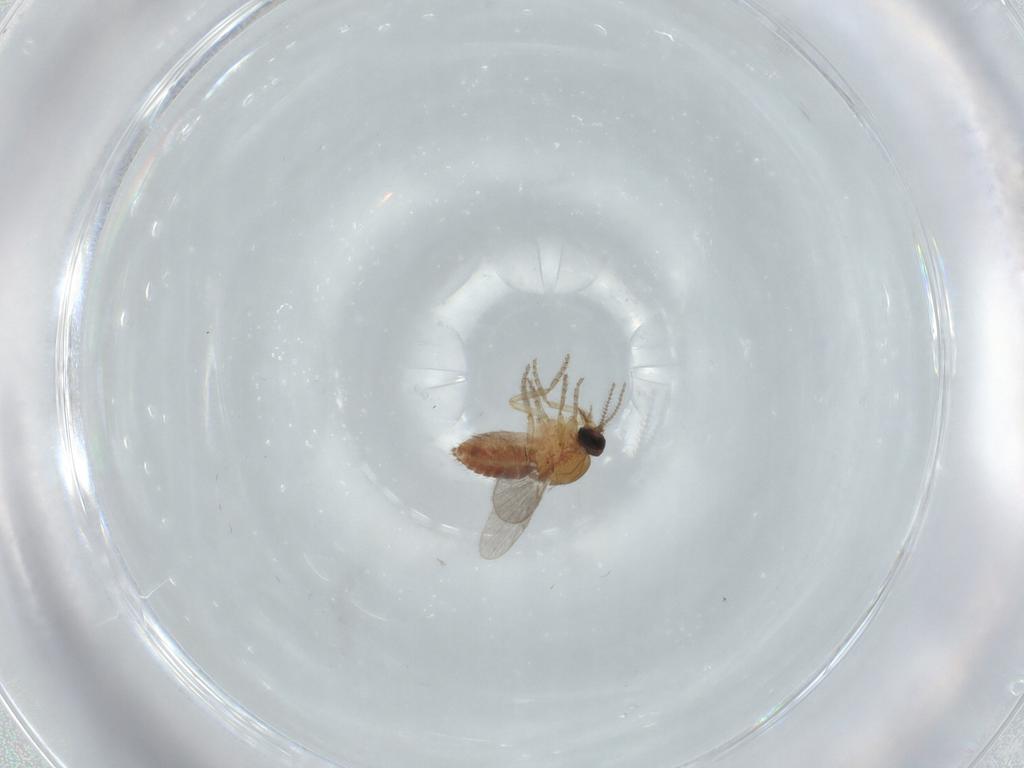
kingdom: Animalia
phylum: Arthropoda
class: Insecta
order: Diptera
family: Ceratopogonidae
